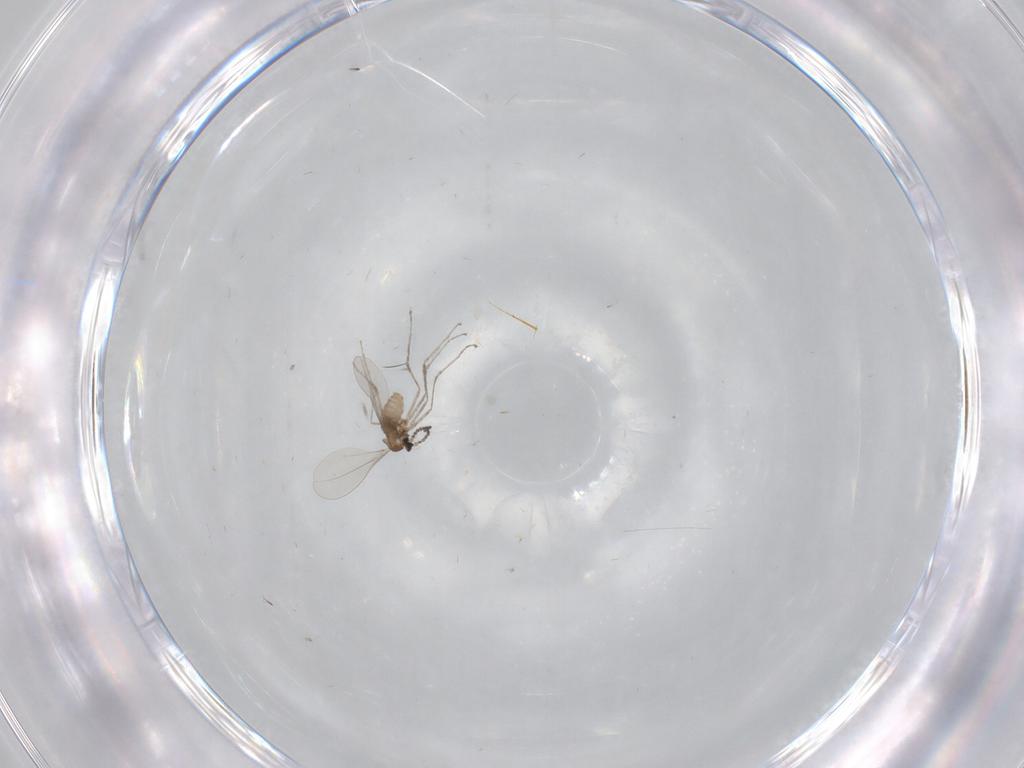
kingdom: Animalia
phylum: Arthropoda
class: Insecta
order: Diptera
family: Cecidomyiidae
